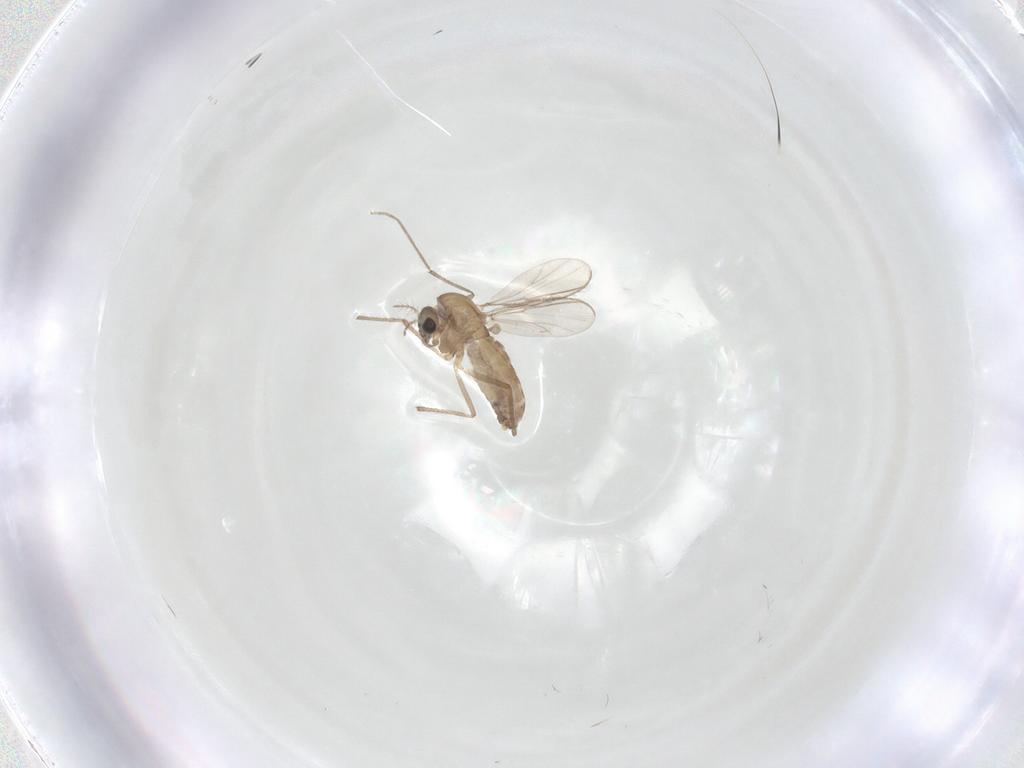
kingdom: Animalia
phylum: Arthropoda
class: Insecta
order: Diptera
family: Chironomidae
